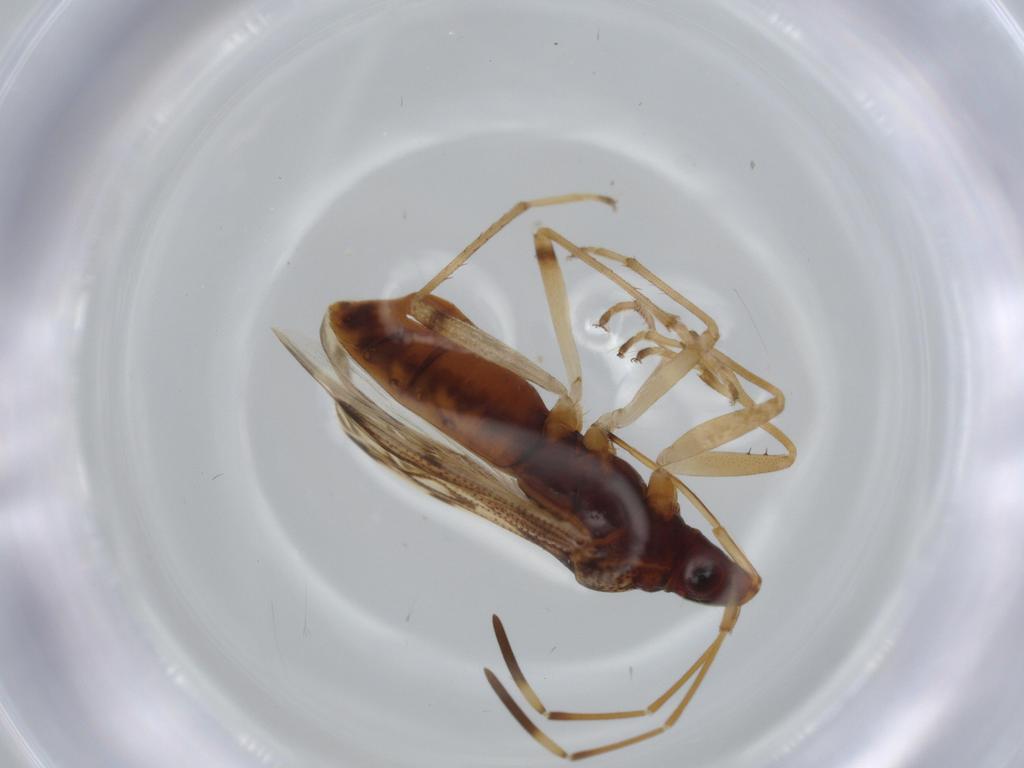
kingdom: Animalia
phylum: Arthropoda
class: Insecta
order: Hemiptera
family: Rhyparochromidae
